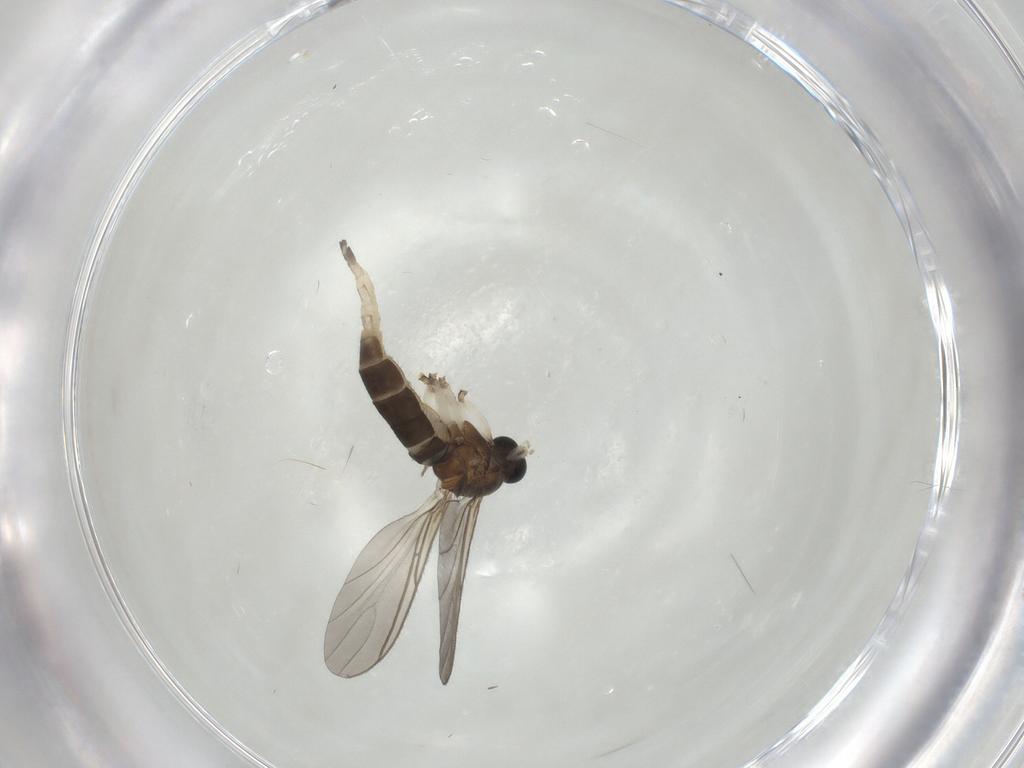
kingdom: Animalia
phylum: Arthropoda
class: Insecta
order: Diptera
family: Sciaridae
